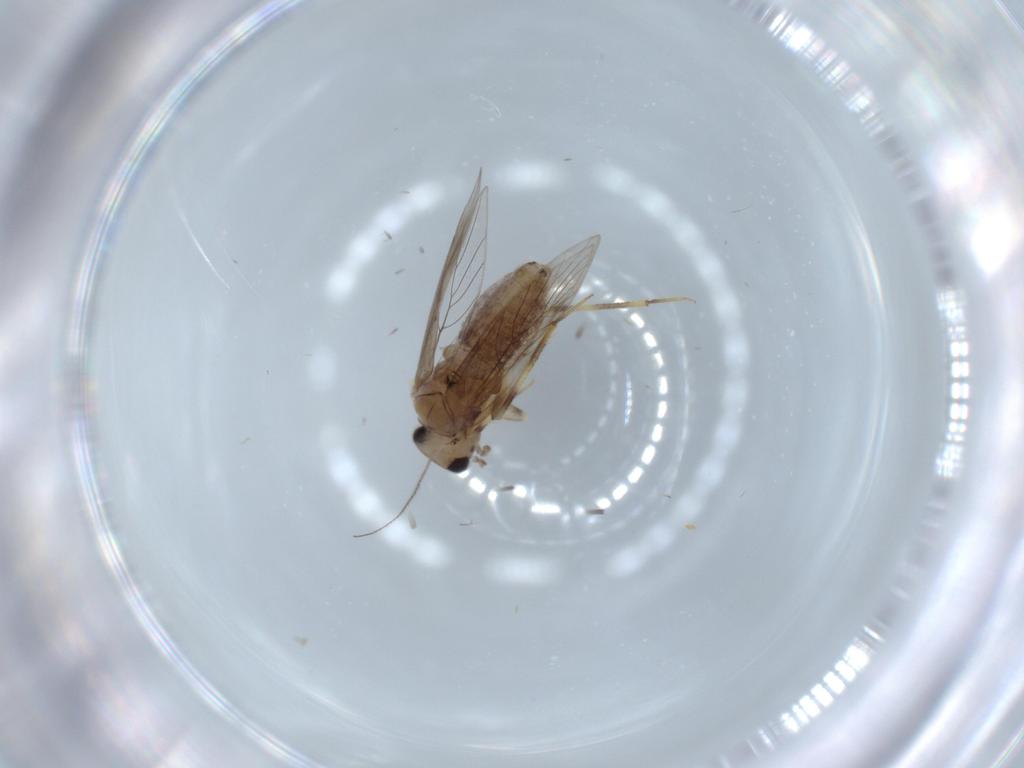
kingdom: Animalia
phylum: Arthropoda
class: Insecta
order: Psocodea
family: Lepidopsocidae
